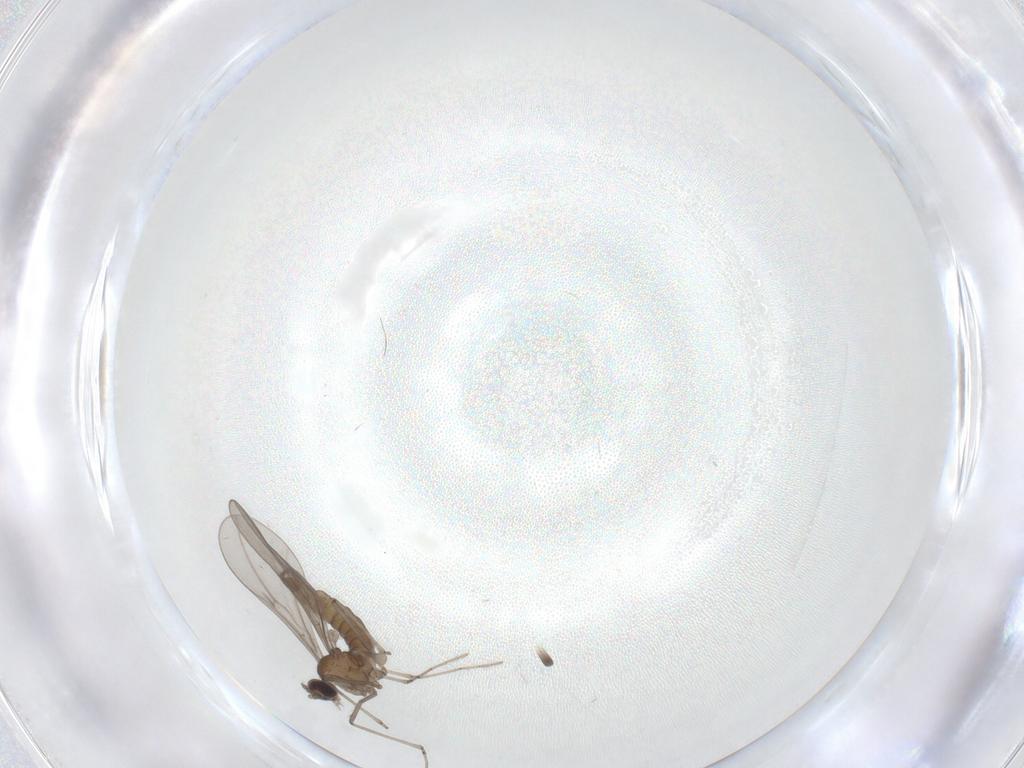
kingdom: Animalia
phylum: Arthropoda
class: Insecta
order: Diptera
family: Cecidomyiidae
